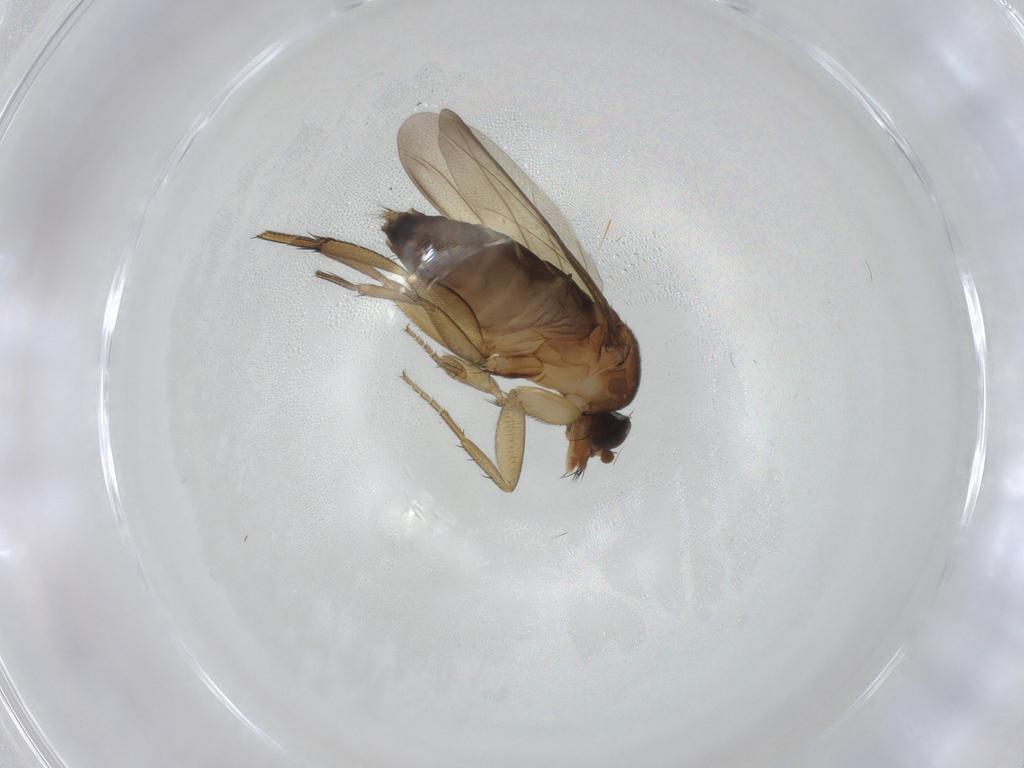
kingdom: Animalia
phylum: Arthropoda
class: Insecta
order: Diptera
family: Phoridae
